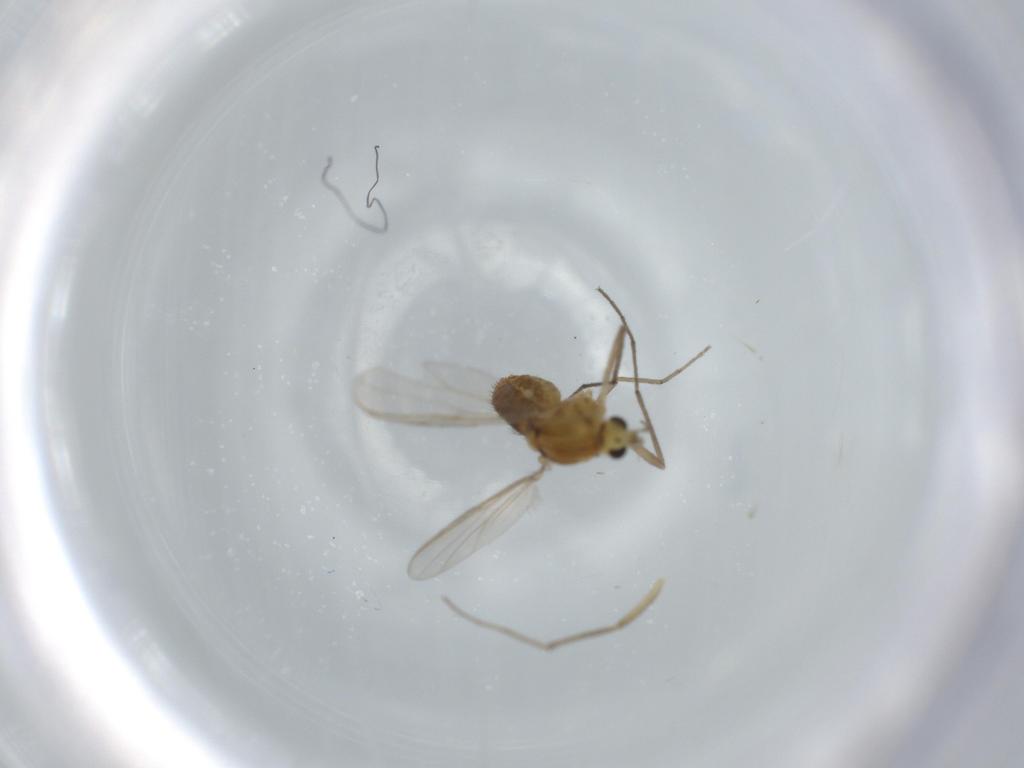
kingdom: Animalia
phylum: Arthropoda
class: Insecta
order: Diptera
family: Chironomidae
